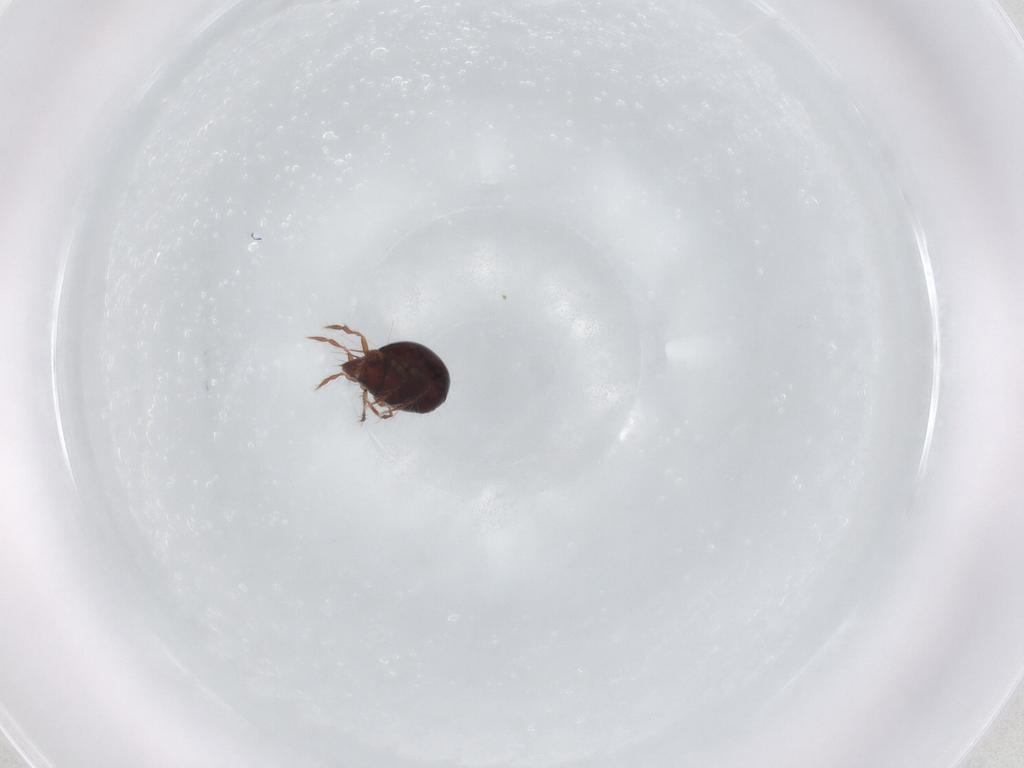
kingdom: Animalia
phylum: Arthropoda
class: Arachnida
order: Sarcoptiformes
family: Ceratoppiidae
